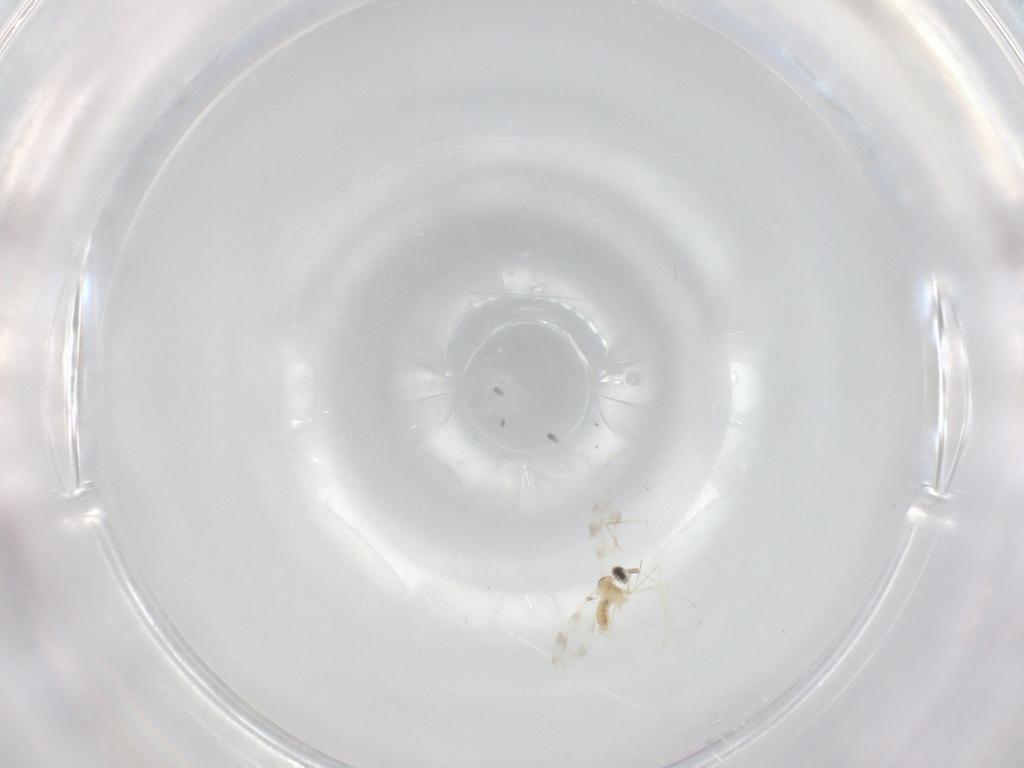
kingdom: Animalia
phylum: Arthropoda
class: Insecta
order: Diptera
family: Cecidomyiidae
